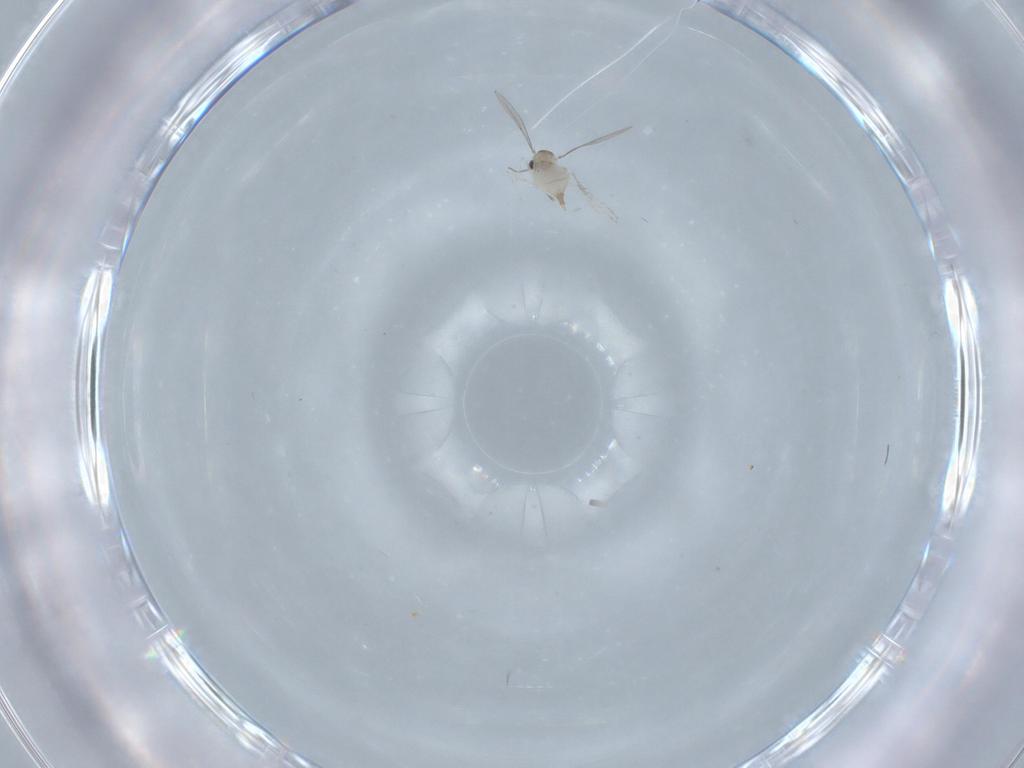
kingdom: Animalia
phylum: Arthropoda
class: Insecta
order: Diptera
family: Cecidomyiidae
